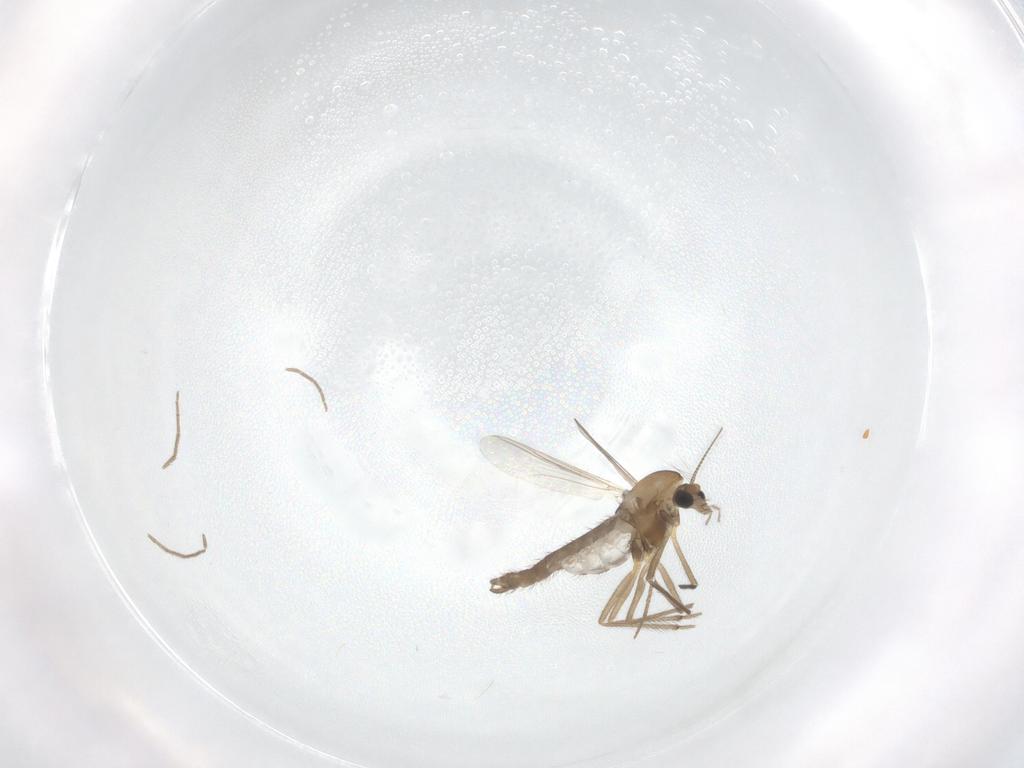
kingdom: Animalia
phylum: Arthropoda
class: Insecta
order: Diptera
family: Chironomidae
